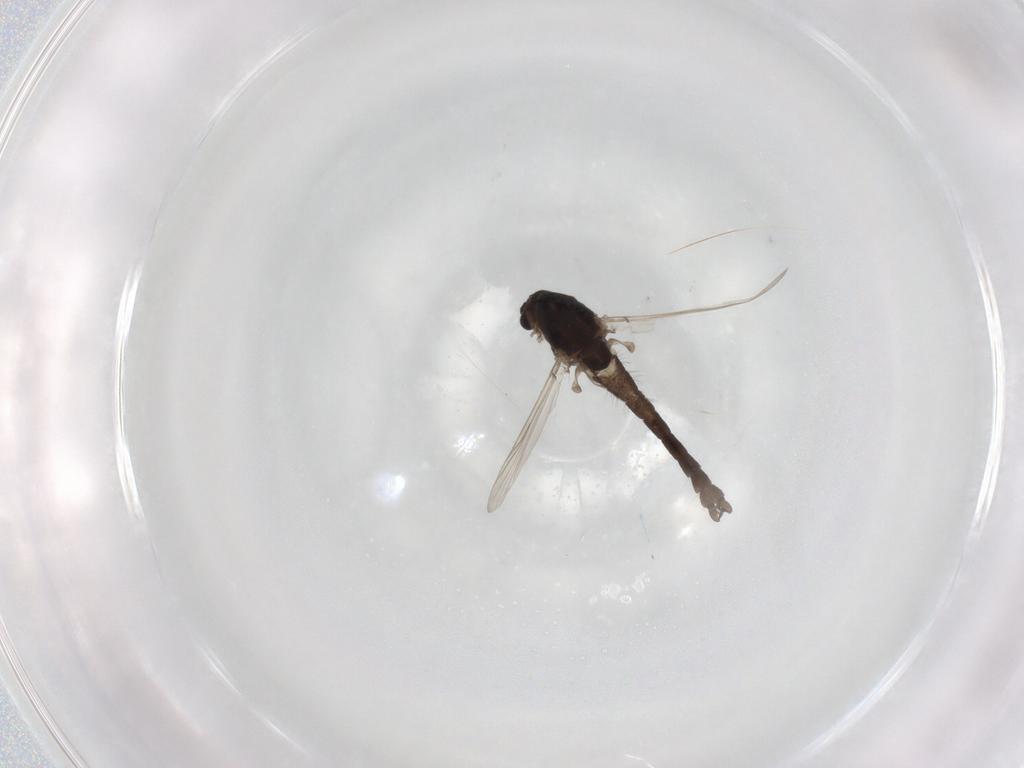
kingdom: Animalia
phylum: Arthropoda
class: Insecta
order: Diptera
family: Chironomidae
